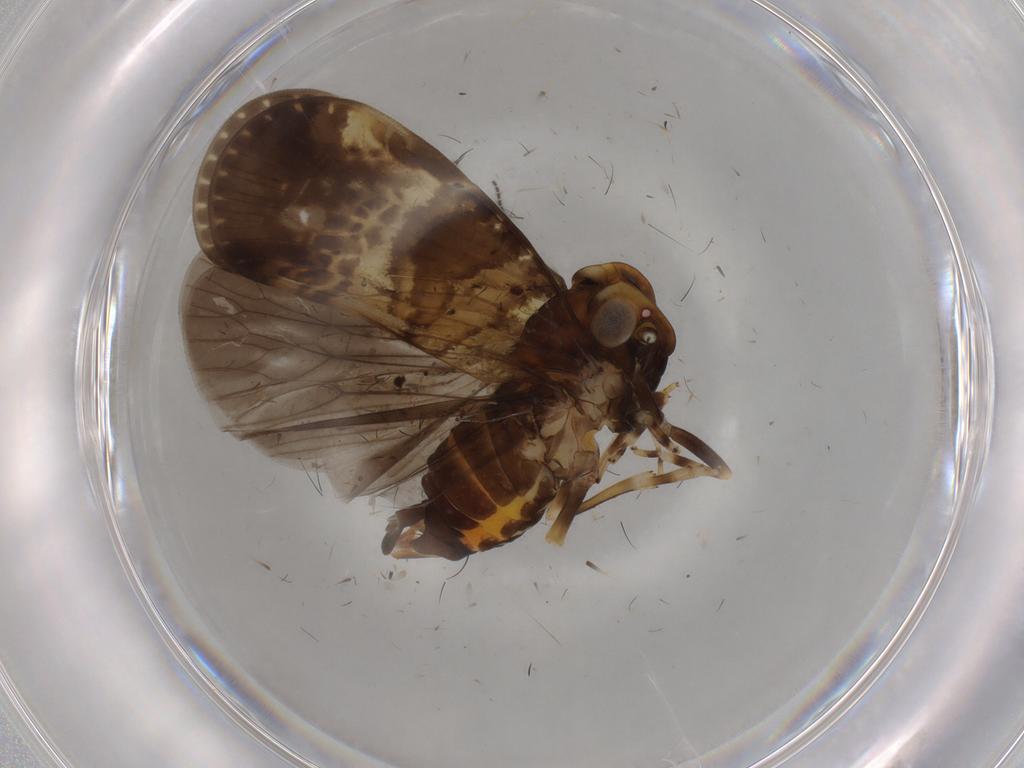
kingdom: Animalia
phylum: Arthropoda
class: Insecta
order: Hemiptera
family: Cixiidae
